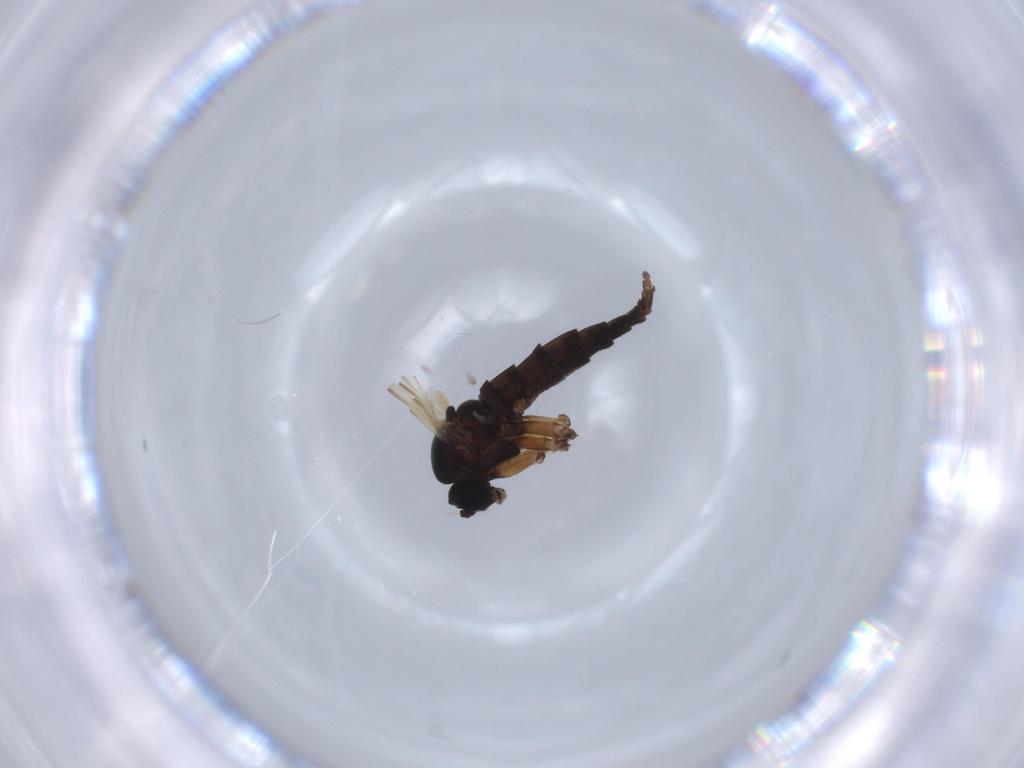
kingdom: Animalia
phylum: Arthropoda
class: Insecta
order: Diptera
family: Sciaridae
